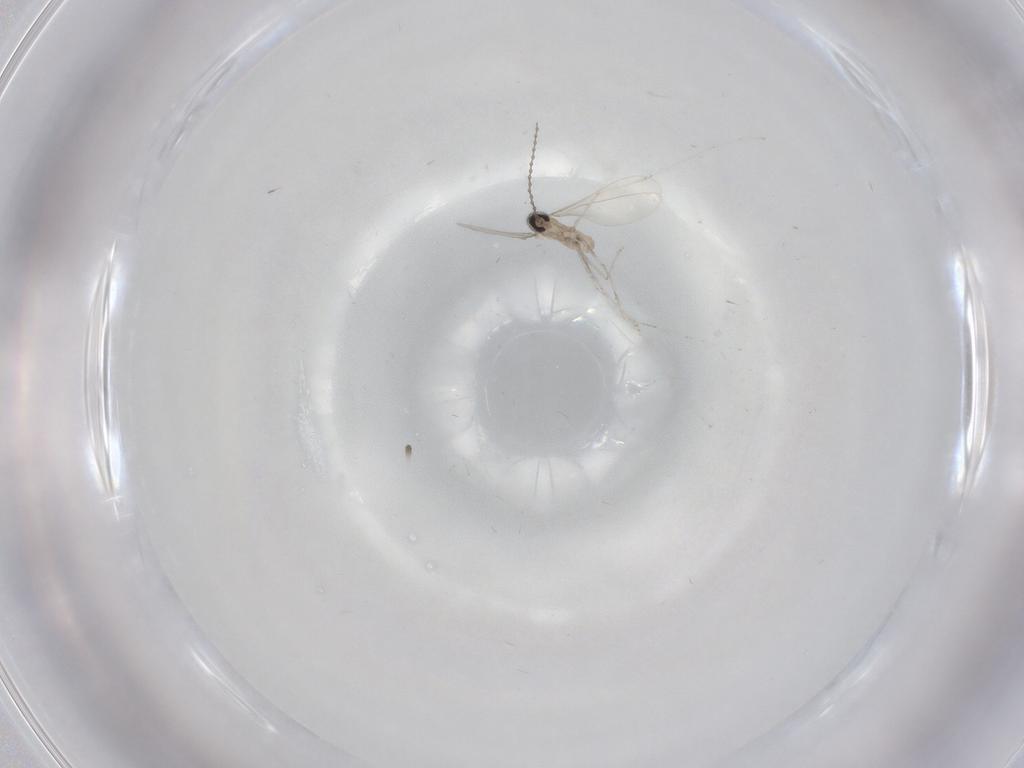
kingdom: Animalia
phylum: Arthropoda
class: Insecta
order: Diptera
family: Cecidomyiidae
